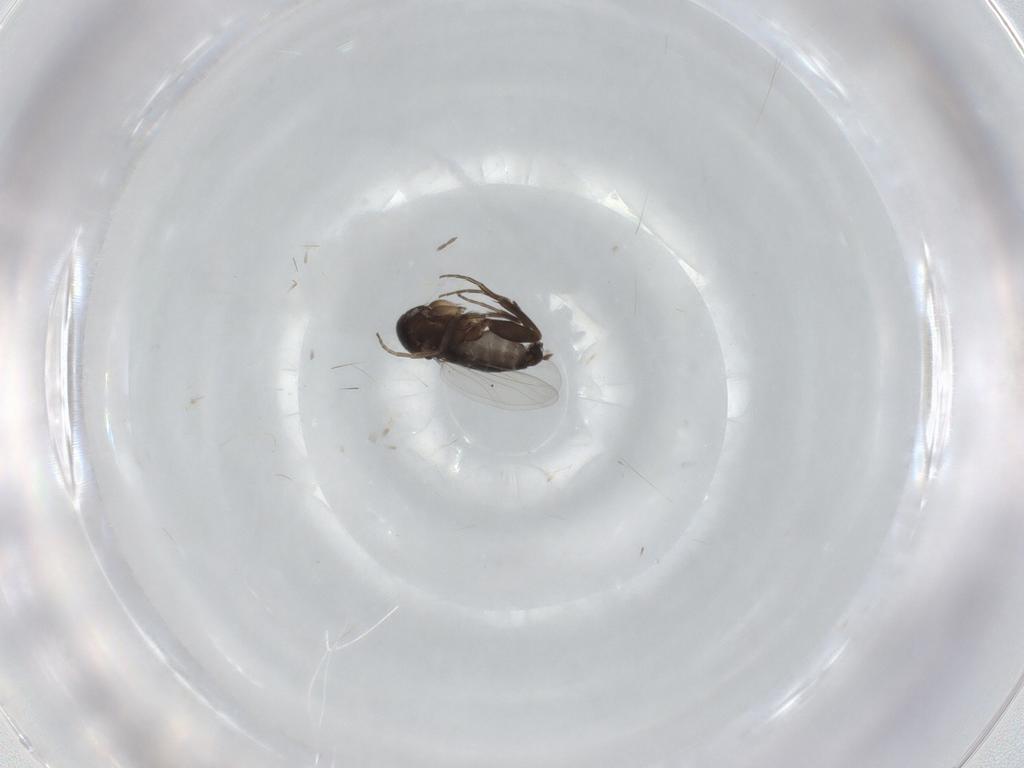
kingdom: Animalia
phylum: Arthropoda
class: Insecta
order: Diptera
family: Phoridae
